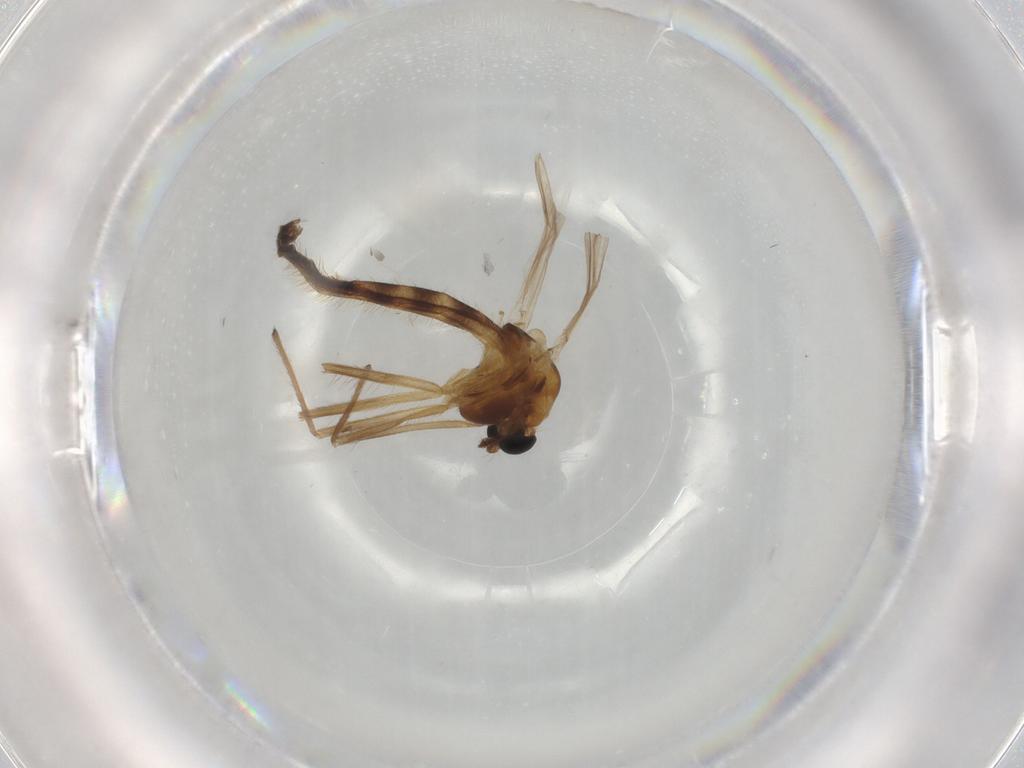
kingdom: Animalia
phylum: Arthropoda
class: Insecta
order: Diptera
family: Chironomidae
